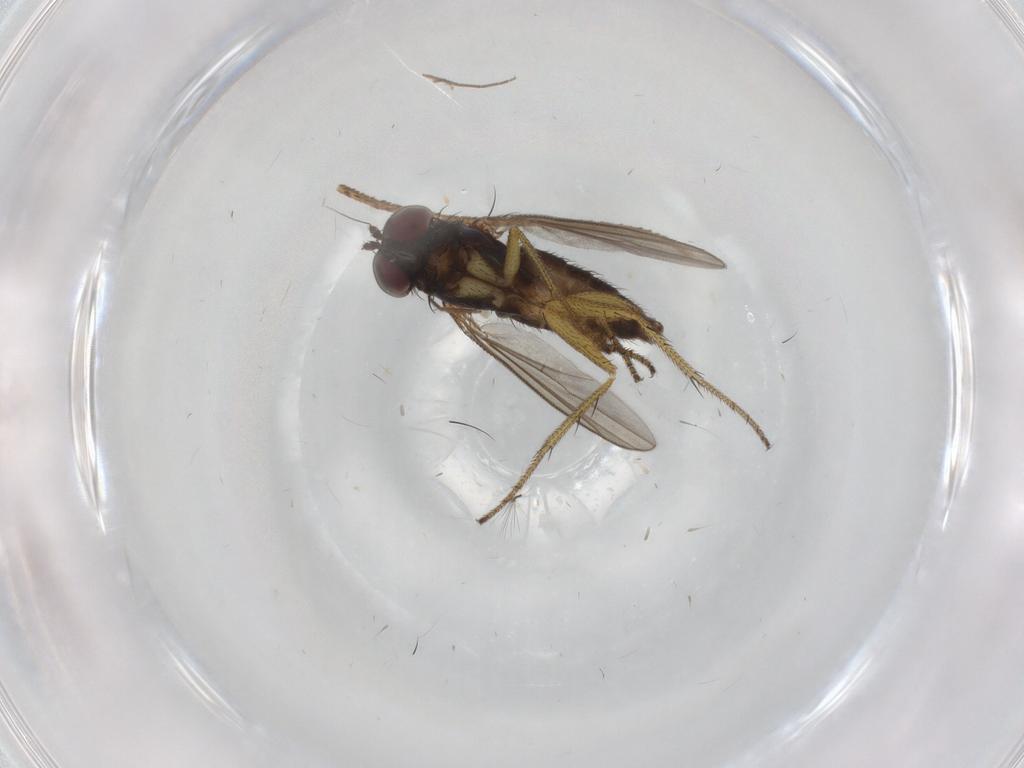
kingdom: Animalia
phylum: Arthropoda
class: Insecta
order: Diptera
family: Dolichopodidae
